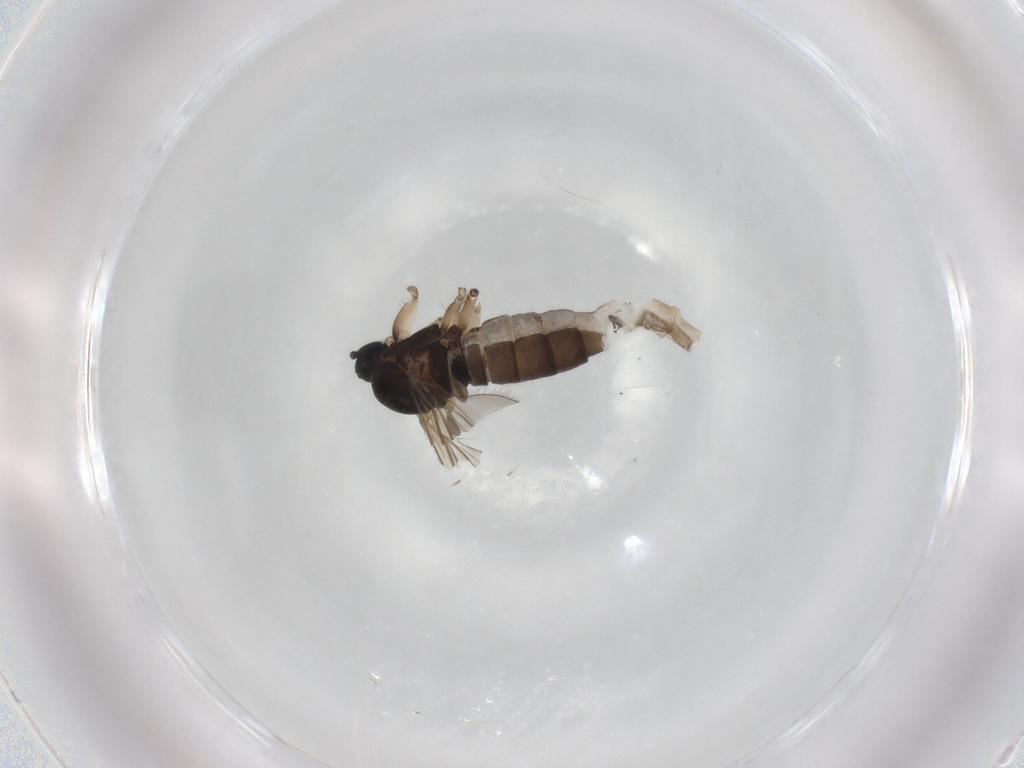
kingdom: Animalia
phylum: Arthropoda
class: Insecta
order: Diptera
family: Sciaridae
